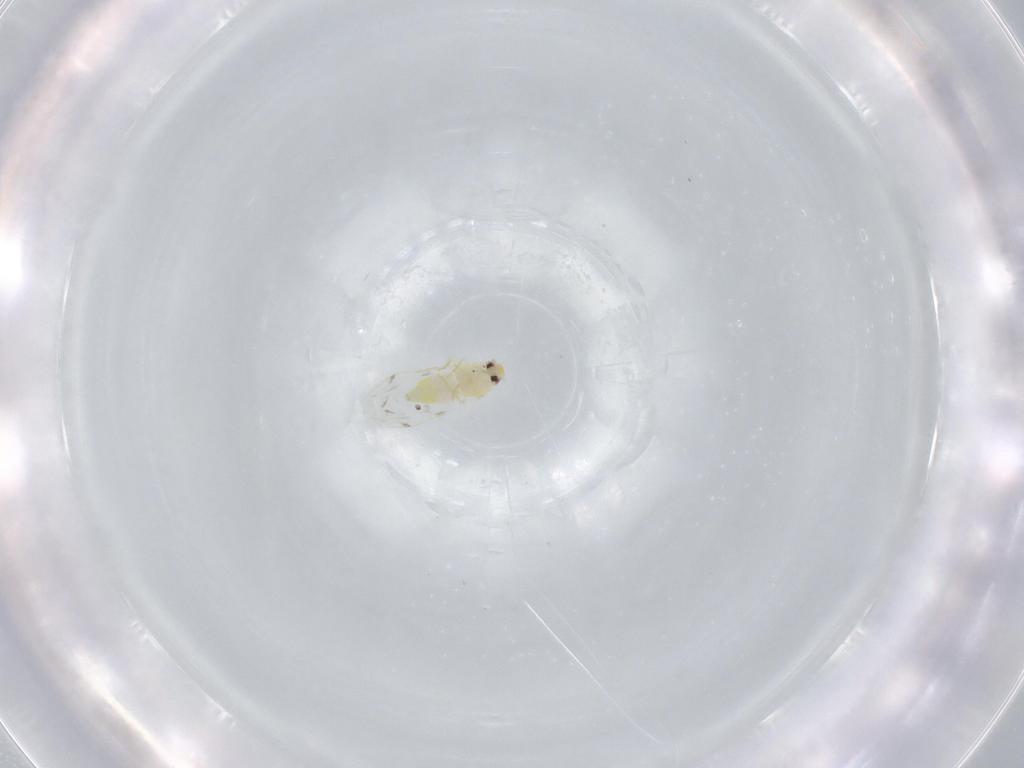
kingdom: Animalia
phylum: Arthropoda
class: Insecta
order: Hemiptera
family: Aleyrodidae
